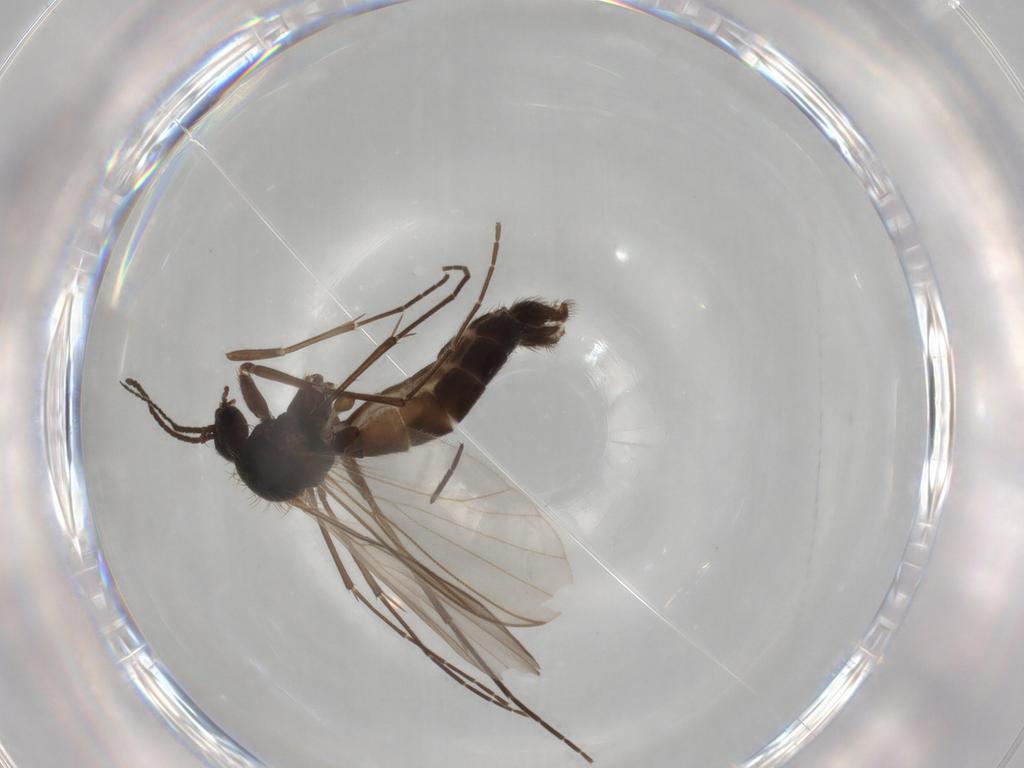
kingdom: Animalia
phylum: Arthropoda
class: Insecta
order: Diptera
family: Mycetophilidae
